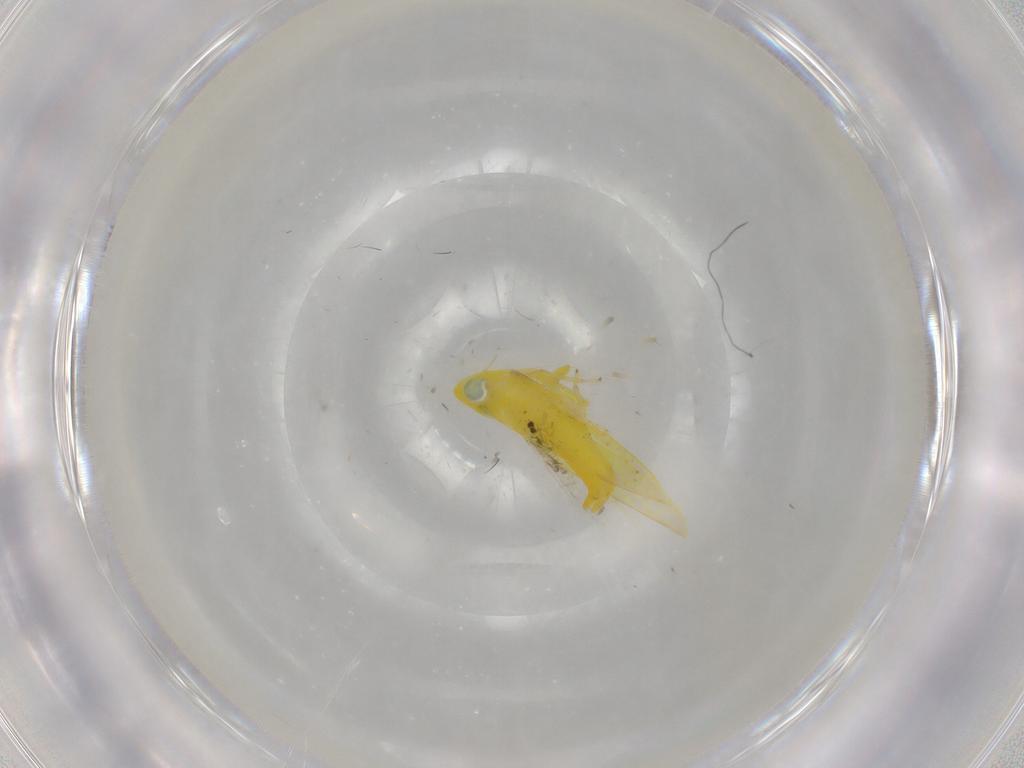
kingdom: Animalia
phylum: Arthropoda
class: Insecta
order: Hemiptera
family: Cicadellidae
